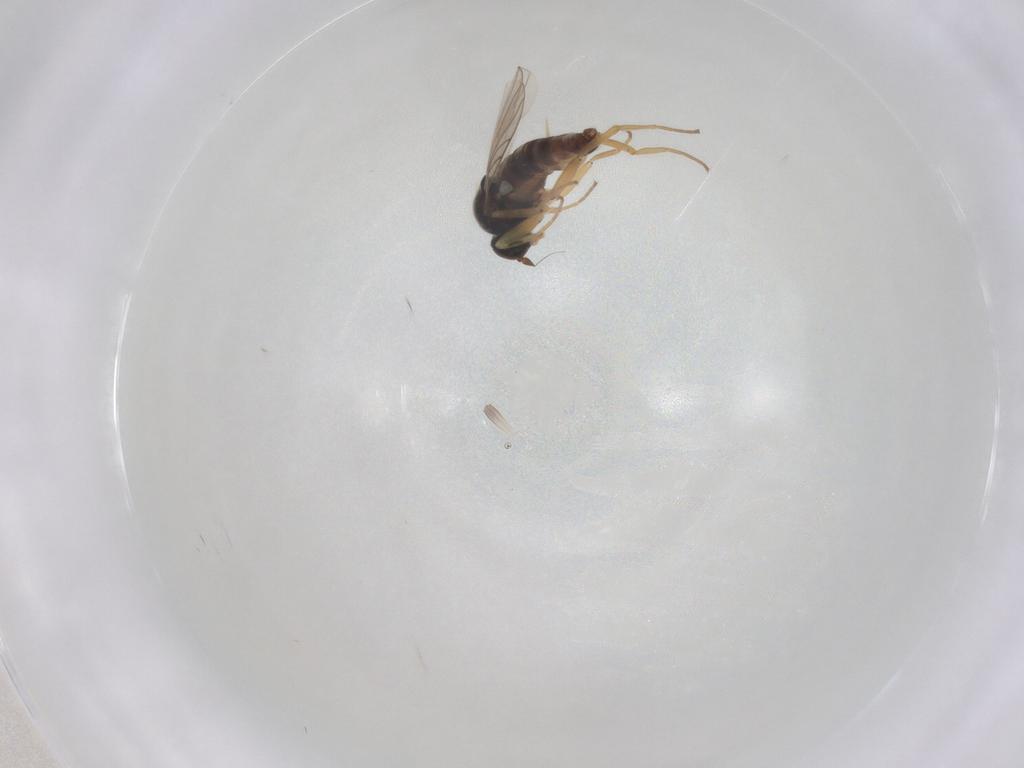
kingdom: Animalia
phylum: Arthropoda
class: Insecta
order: Diptera
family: Hybotidae
